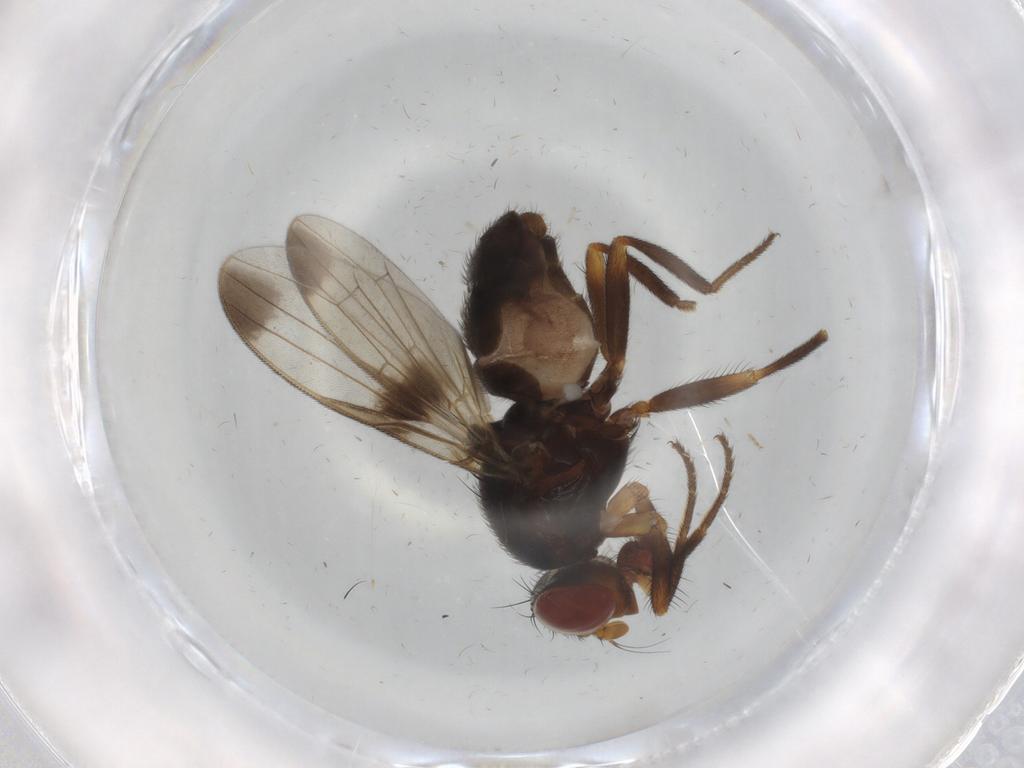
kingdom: Animalia
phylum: Arthropoda
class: Insecta
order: Diptera
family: Ulidiidae
